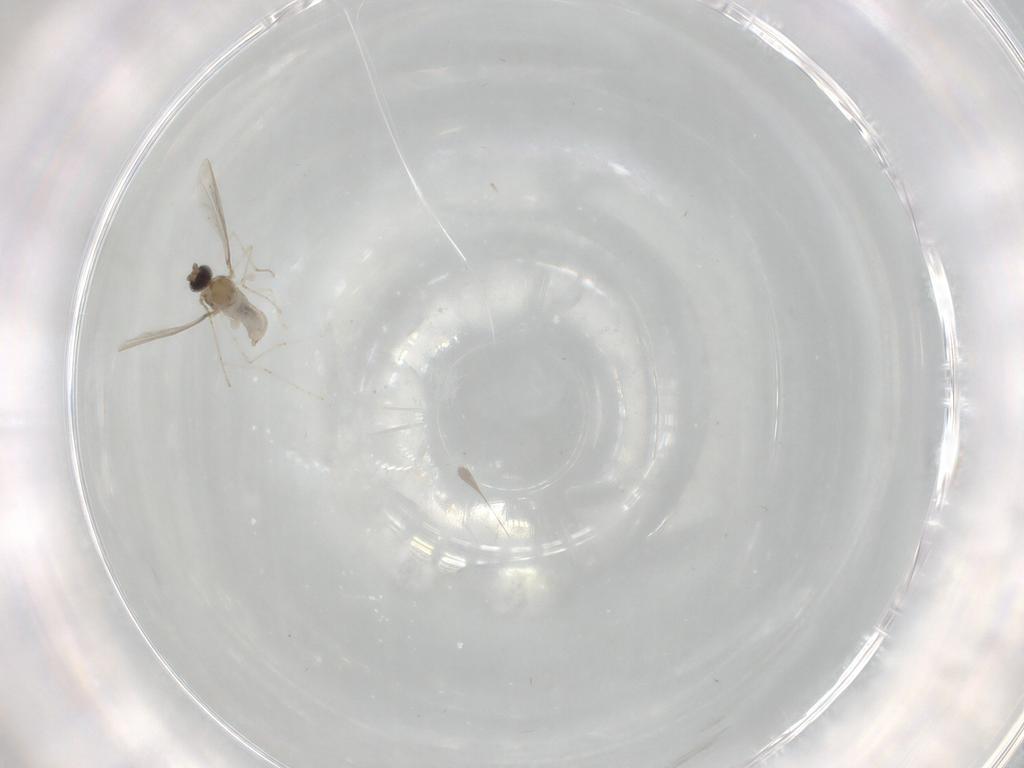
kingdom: Animalia
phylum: Arthropoda
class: Insecta
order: Diptera
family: Cecidomyiidae
